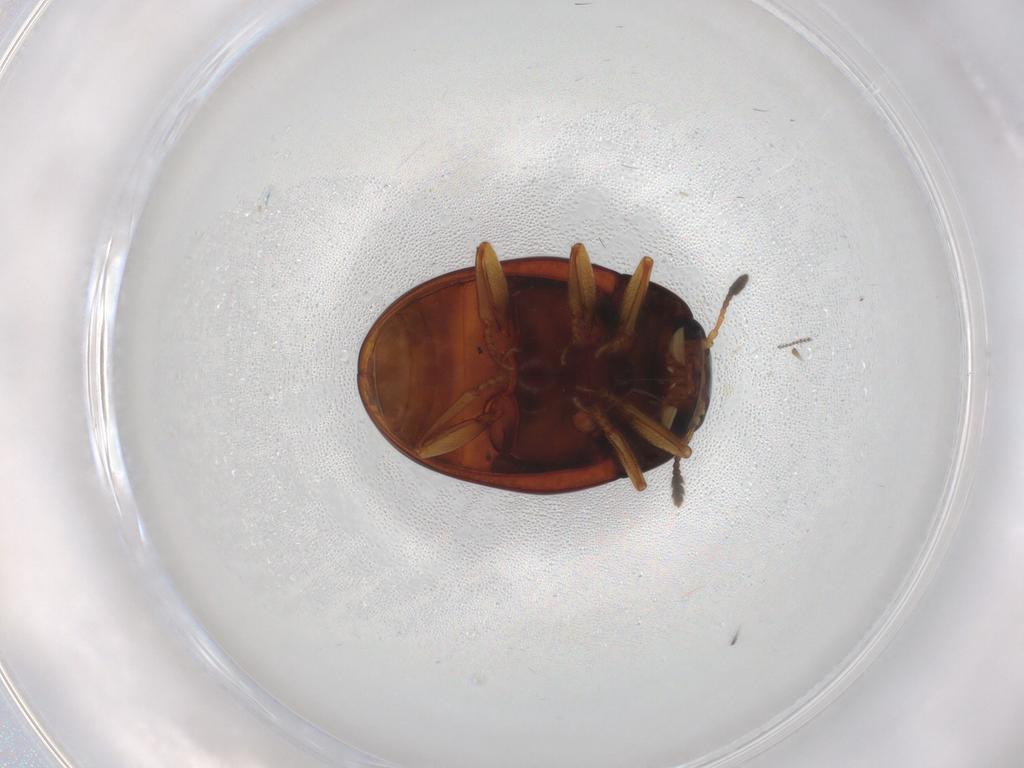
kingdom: Animalia
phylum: Arthropoda
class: Insecta
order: Coleoptera
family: Erotylidae
